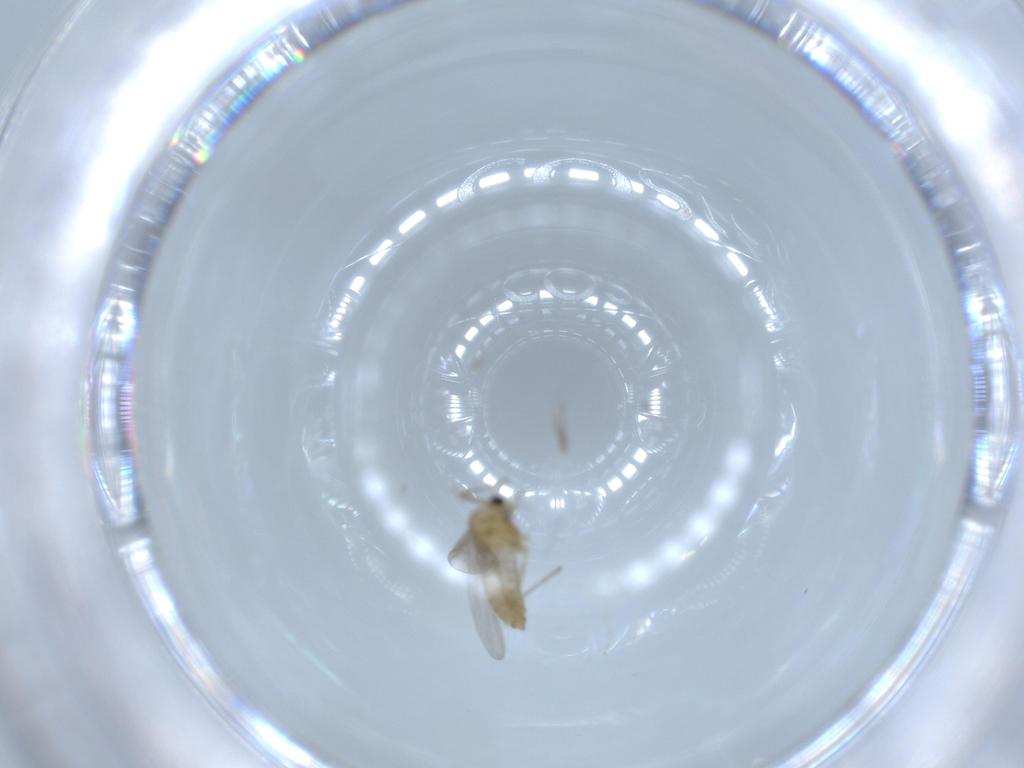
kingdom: Animalia
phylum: Arthropoda
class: Insecta
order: Diptera
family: Chironomidae
